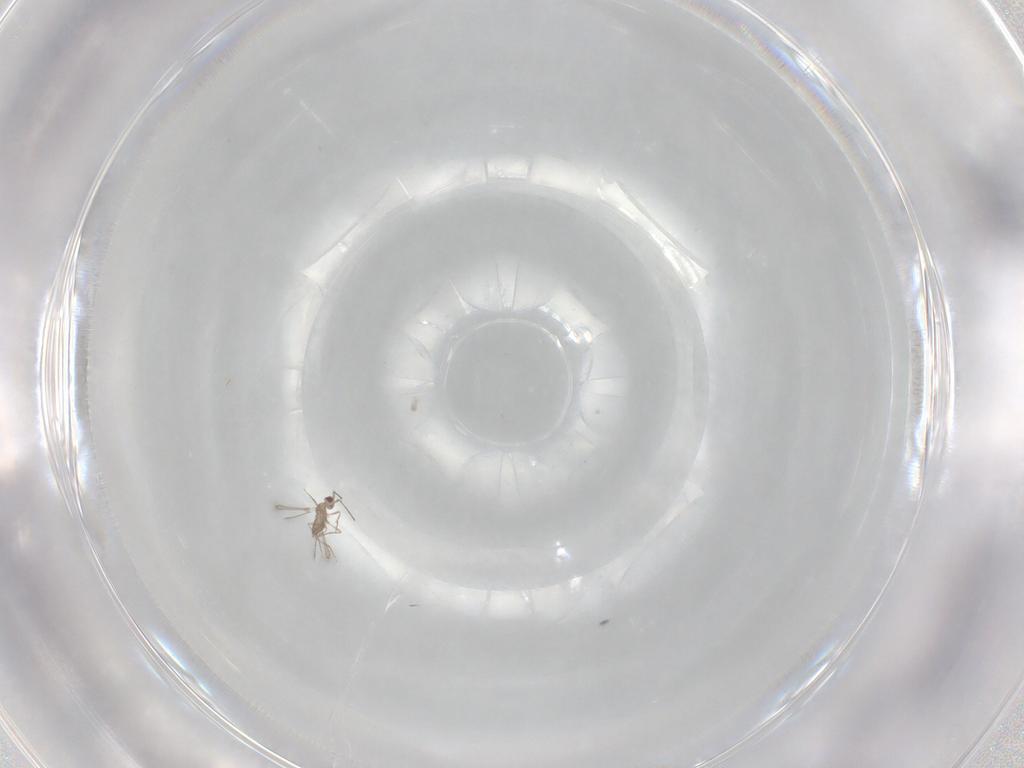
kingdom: Animalia
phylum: Arthropoda
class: Insecta
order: Hymenoptera
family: Mymaridae
